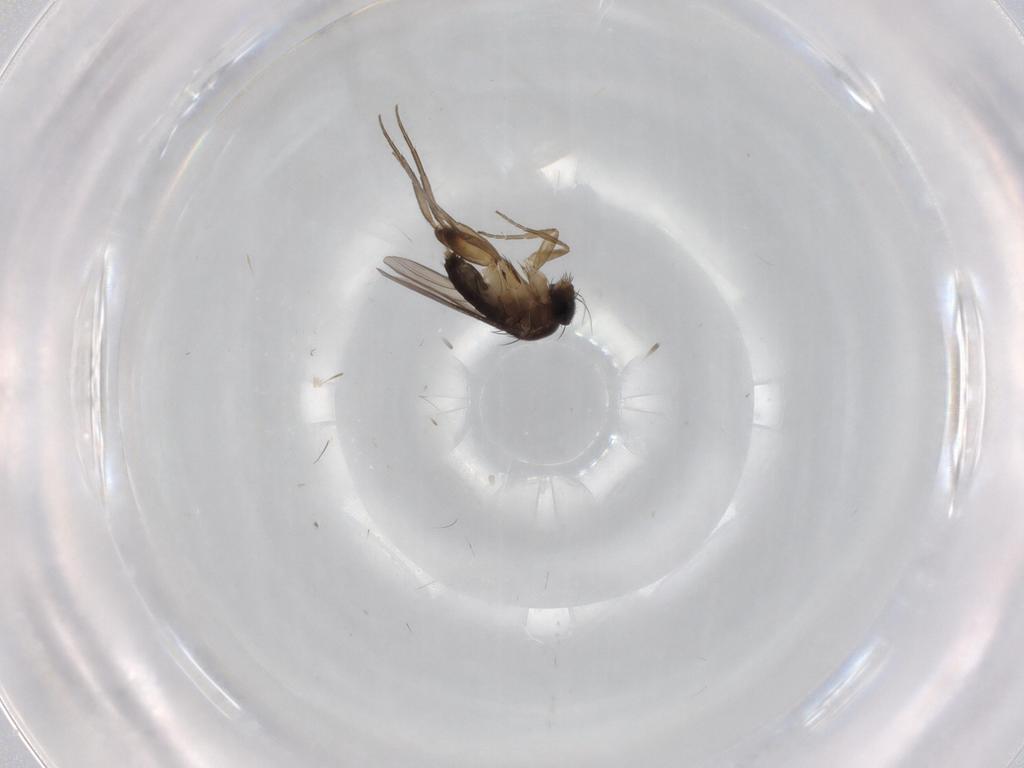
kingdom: Animalia
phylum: Arthropoda
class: Insecta
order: Diptera
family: Phoridae
